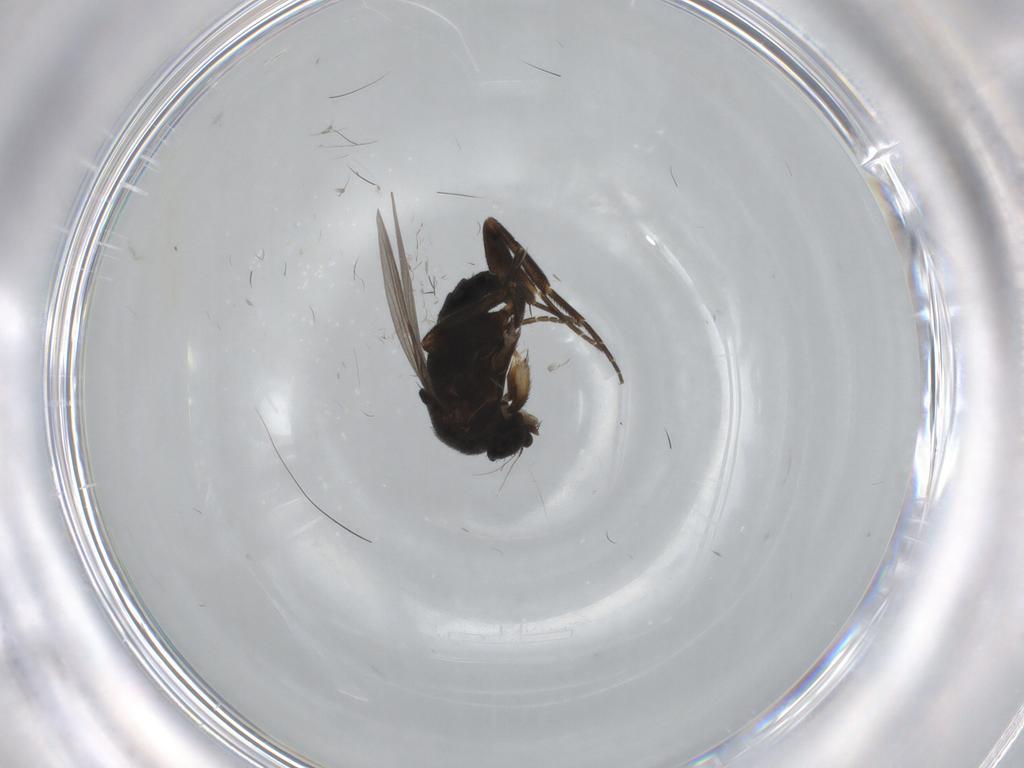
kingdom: Animalia
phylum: Arthropoda
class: Insecta
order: Diptera
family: Phoridae
